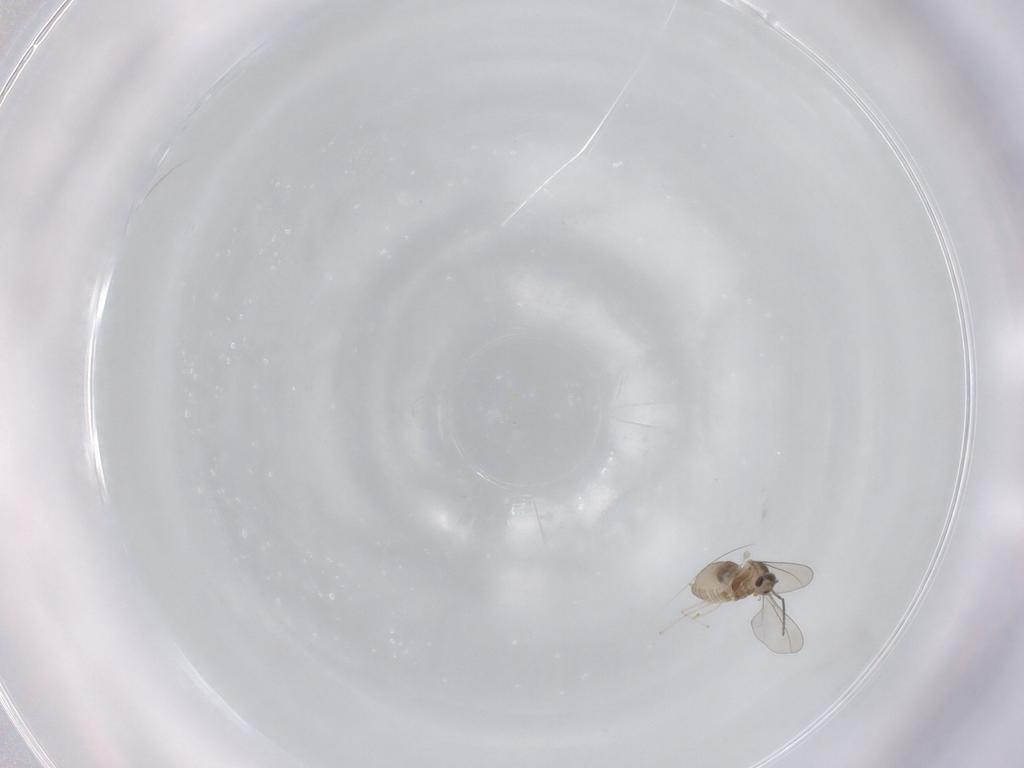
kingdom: Animalia
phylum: Arthropoda
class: Insecta
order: Diptera
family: Cecidomyiidae
